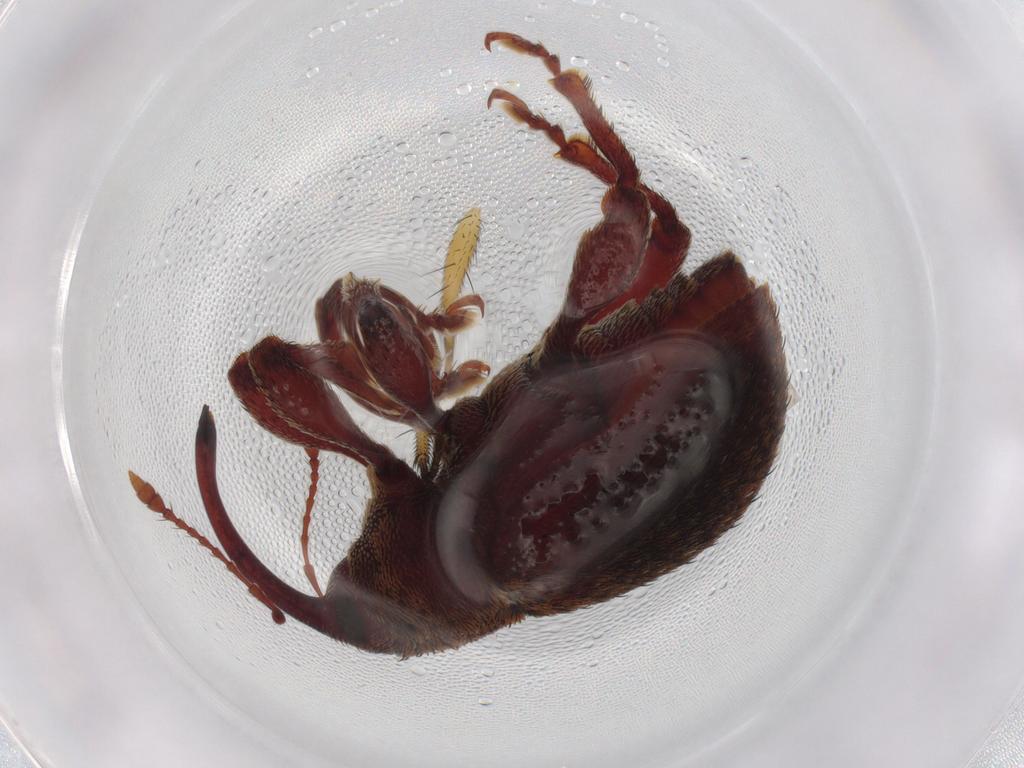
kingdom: Animalia
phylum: Arthropoda
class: Insecta
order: Coleoptera
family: Curculionidae
